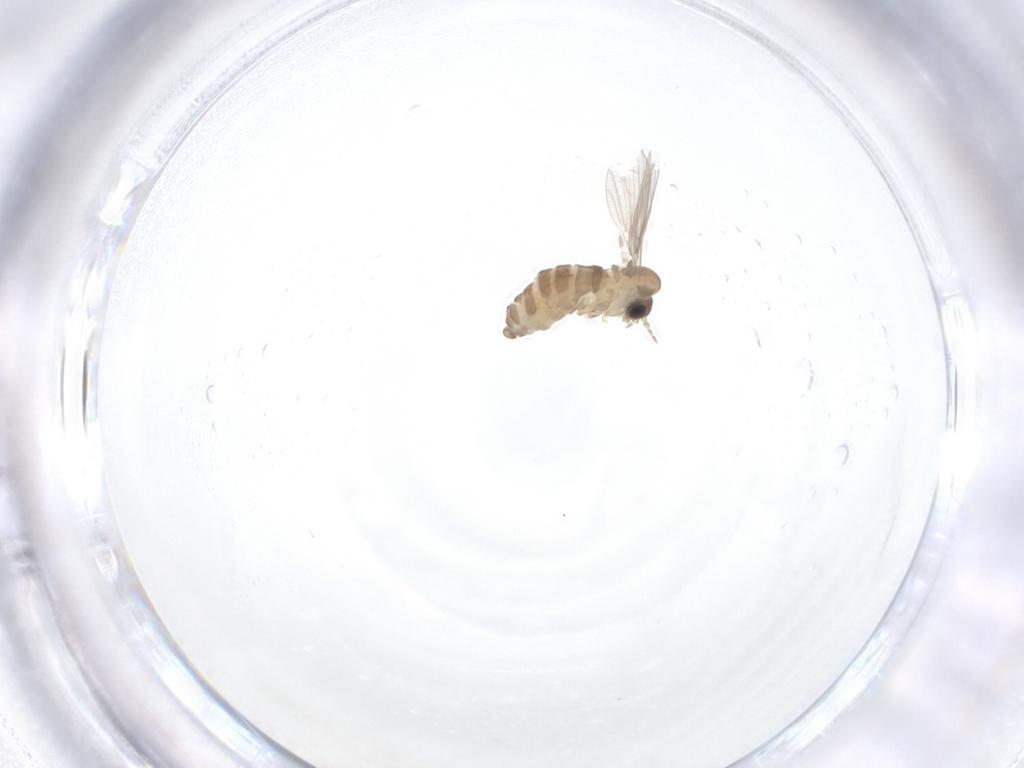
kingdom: Animalia
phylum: Arthropoda
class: Insecta
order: Diptera
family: Psychodidae
